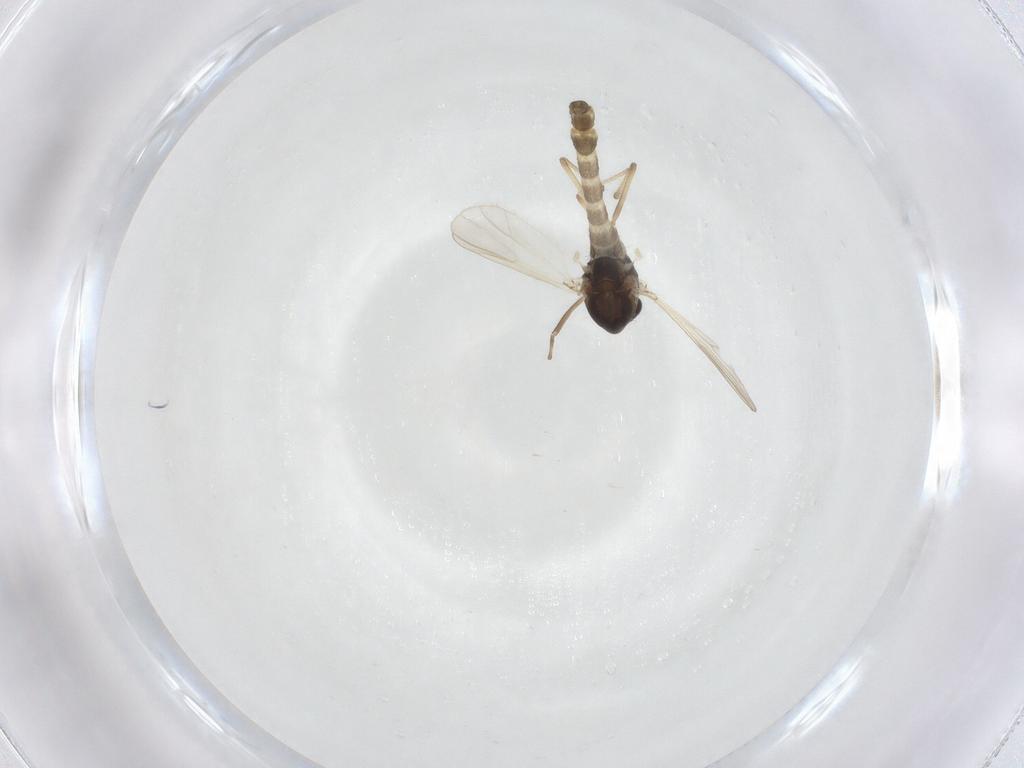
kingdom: Animalia
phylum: Arthropoda
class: Insecta
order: Diptera
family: Chironomidae
